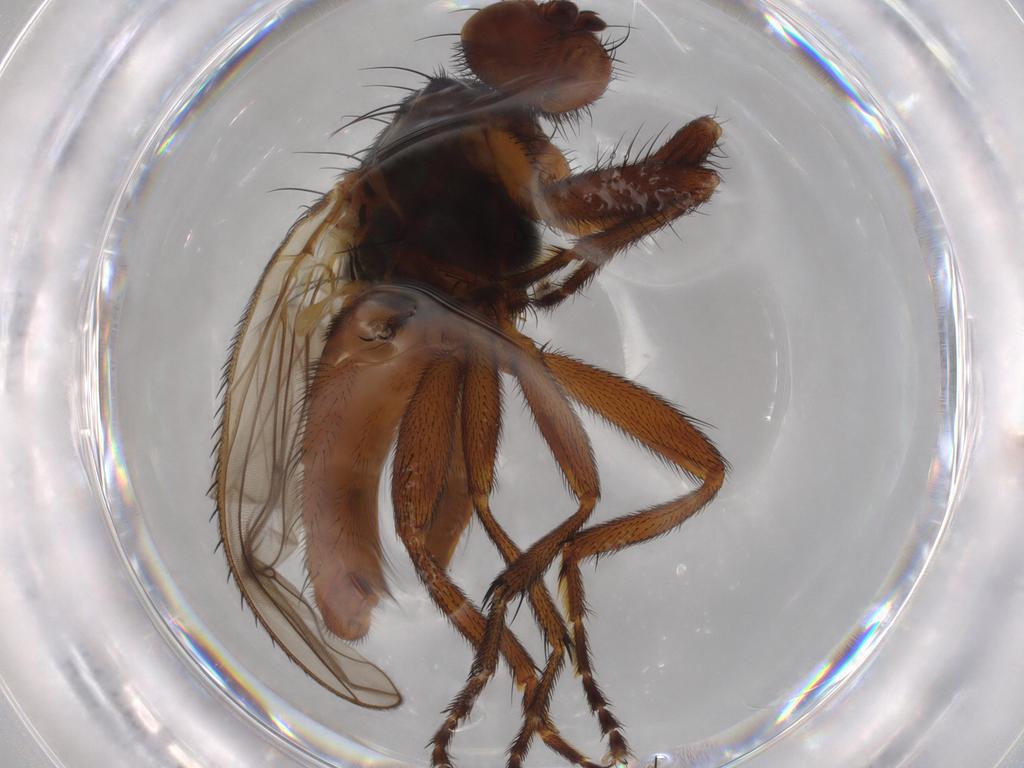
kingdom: Animalia
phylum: Arthropoda
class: Insecta
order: Diptera
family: Heleomyzidae
